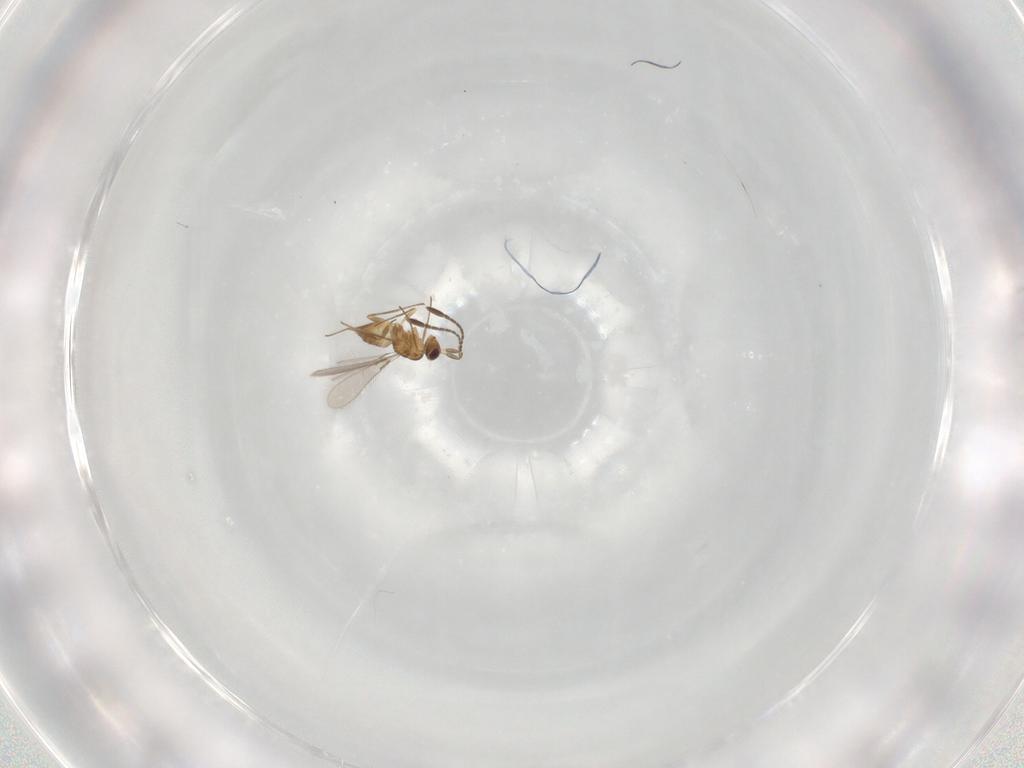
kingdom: Animalia
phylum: Arthropoda
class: Insecta
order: Hymenoptera
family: Mymaridae
